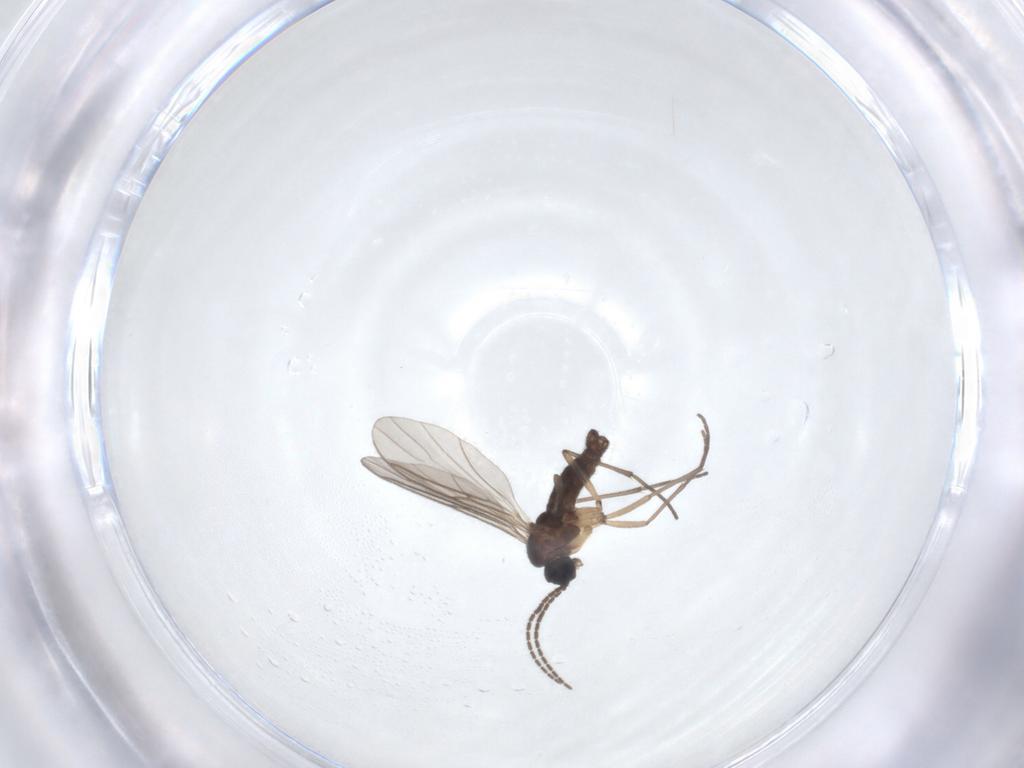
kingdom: Animalia
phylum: Arthropoda
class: Insecta
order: Diptera
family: Sciaridae
